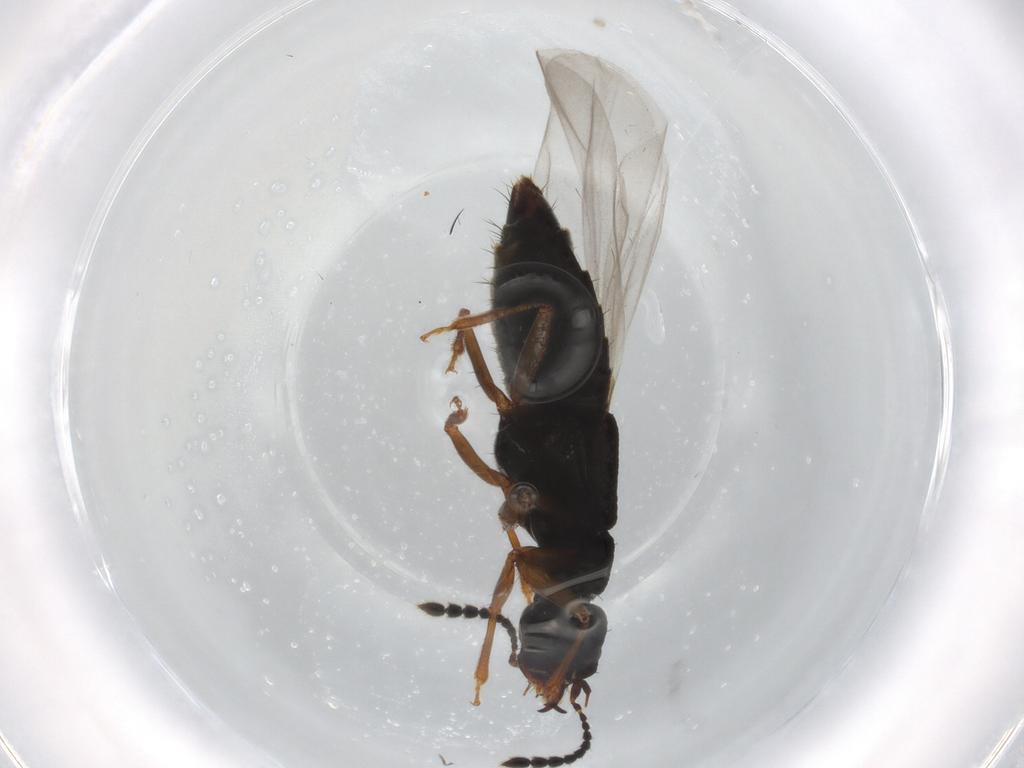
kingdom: Animalia
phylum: Arthropoda
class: Insecta
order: Coleoptera
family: Staphylinidae
